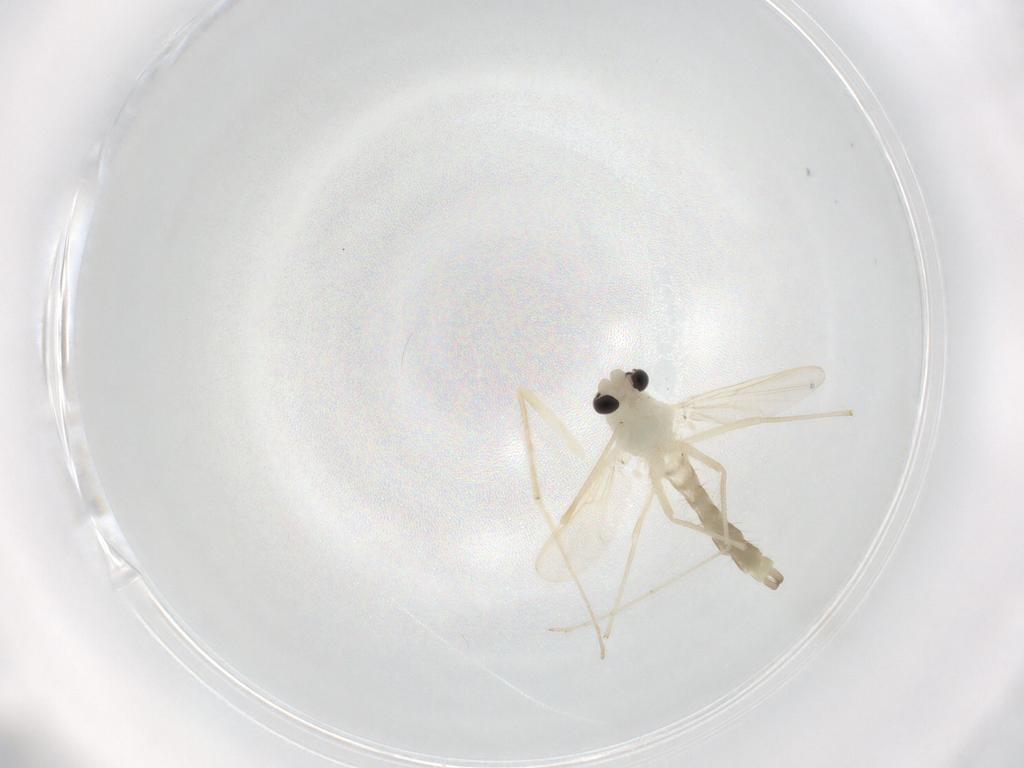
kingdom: Animalia
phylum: Arthropoda
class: Insecta
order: Diptera
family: Chironomidae
